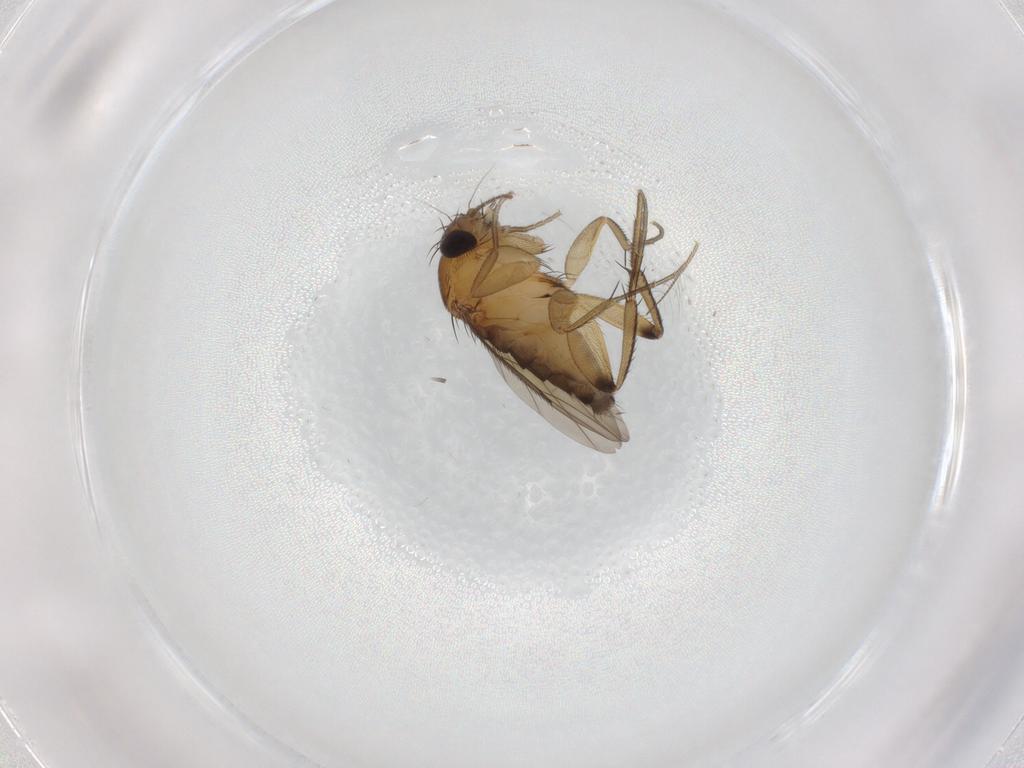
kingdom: Animalia
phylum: Arthropoda
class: Insecta
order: Diptera
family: Phoridae
